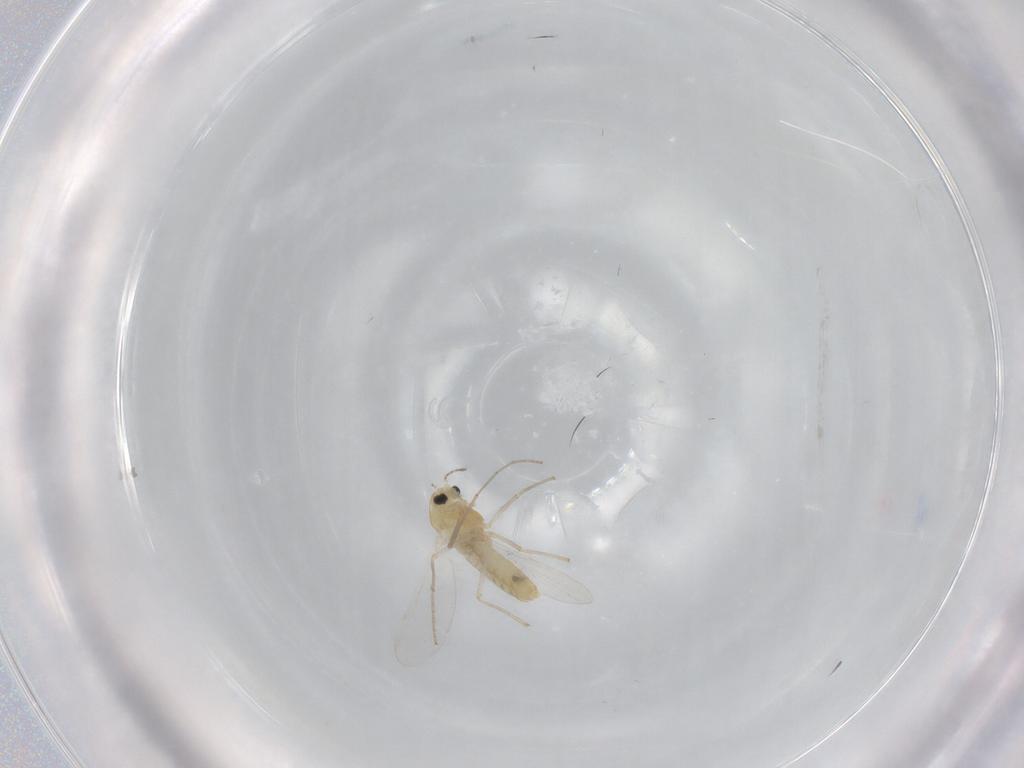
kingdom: Animalia
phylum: Arthropoda
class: Insecta
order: Diptera
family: Chironomidae
